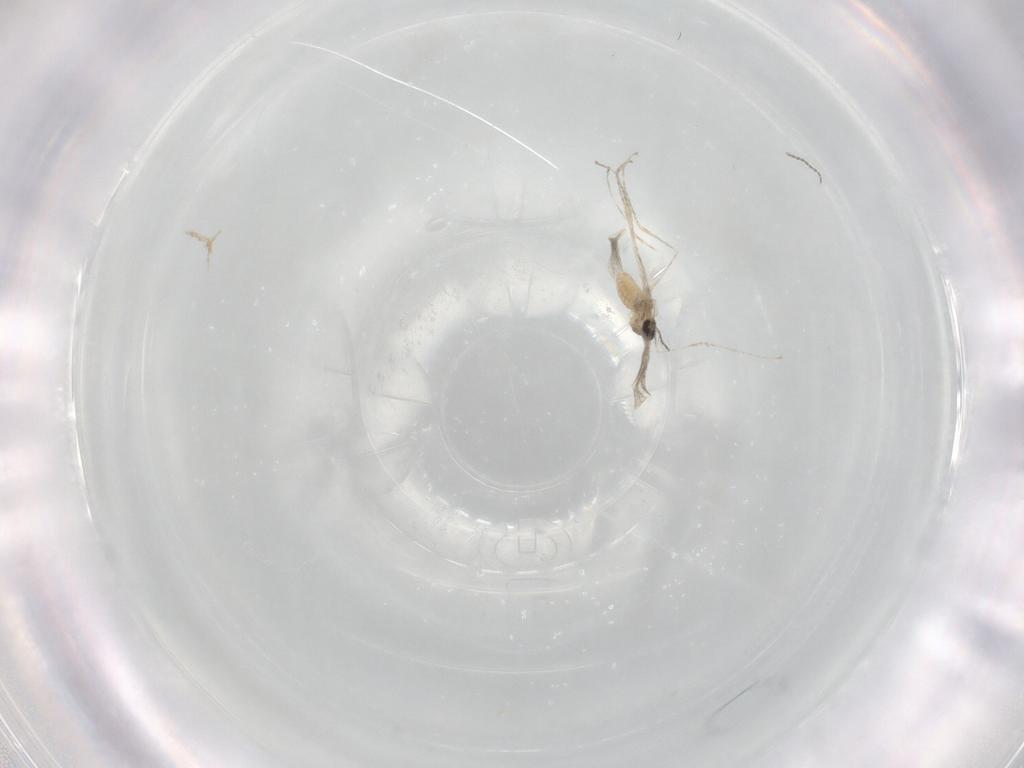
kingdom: Animalia
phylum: Arthropoda
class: Insecta
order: Diptera
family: Cecidomyiidae
